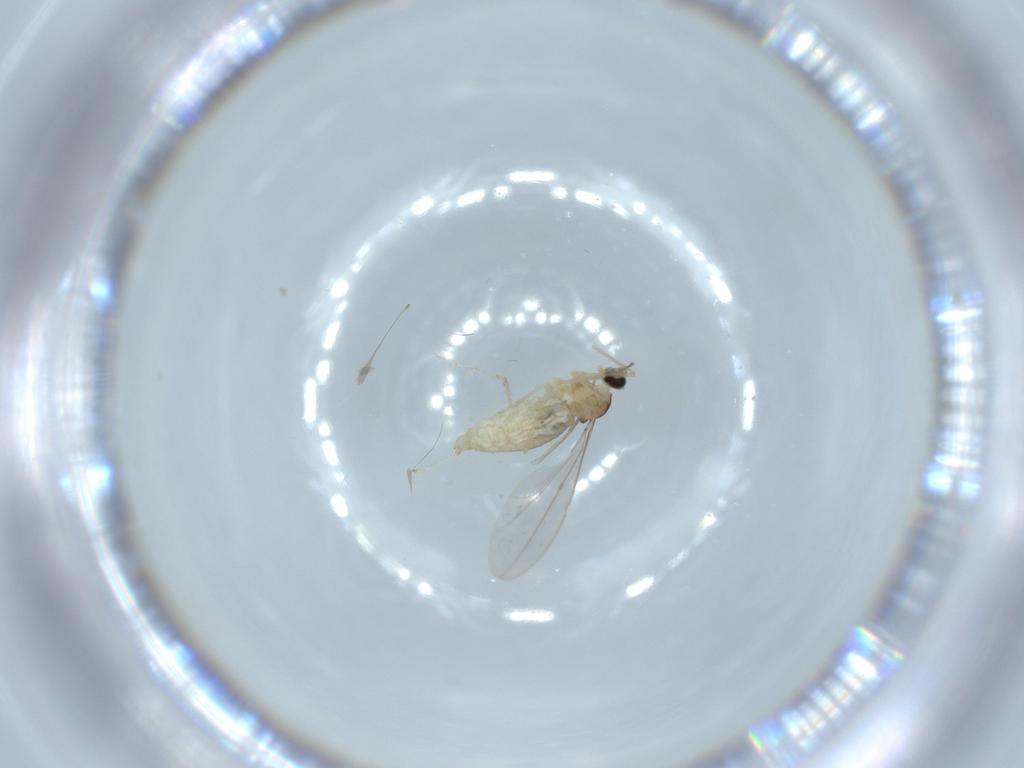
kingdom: Animalia
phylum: Arthropoda
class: Insecta
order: Diptera
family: Cecidomyiidae
